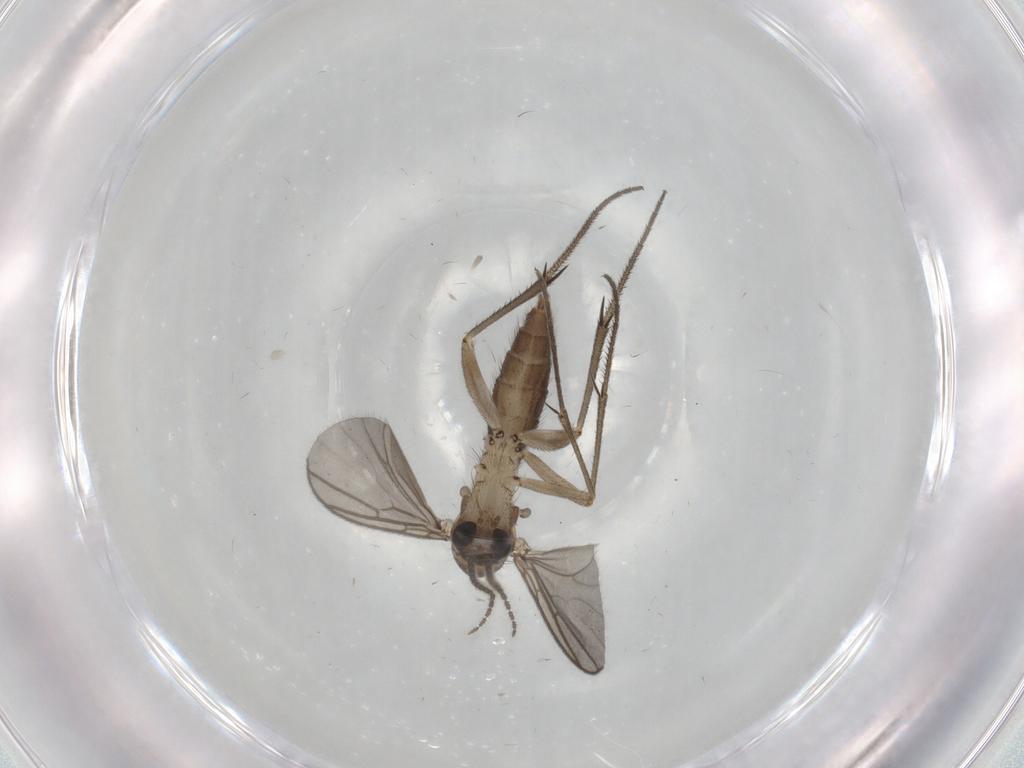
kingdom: Animalia
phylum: Arthropoda
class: Insecta
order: Diptera
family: Mycetophilidae
